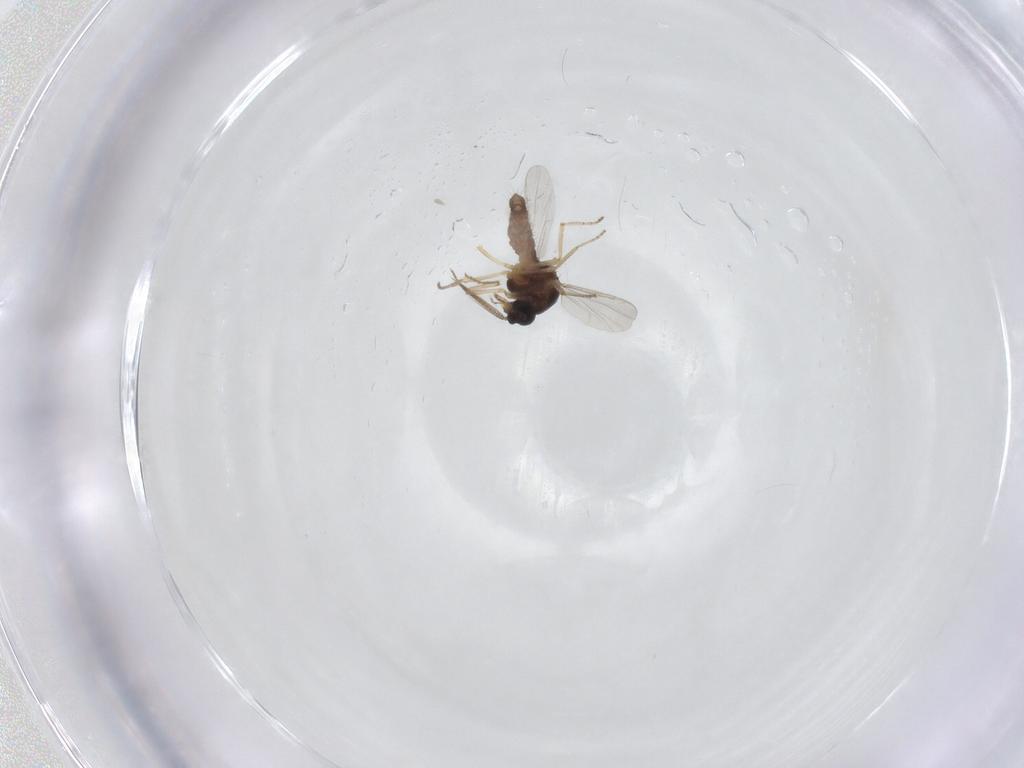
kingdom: Animalia
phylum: Arthropoda
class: Insecta
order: Diptera
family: Ceratopogonidae
